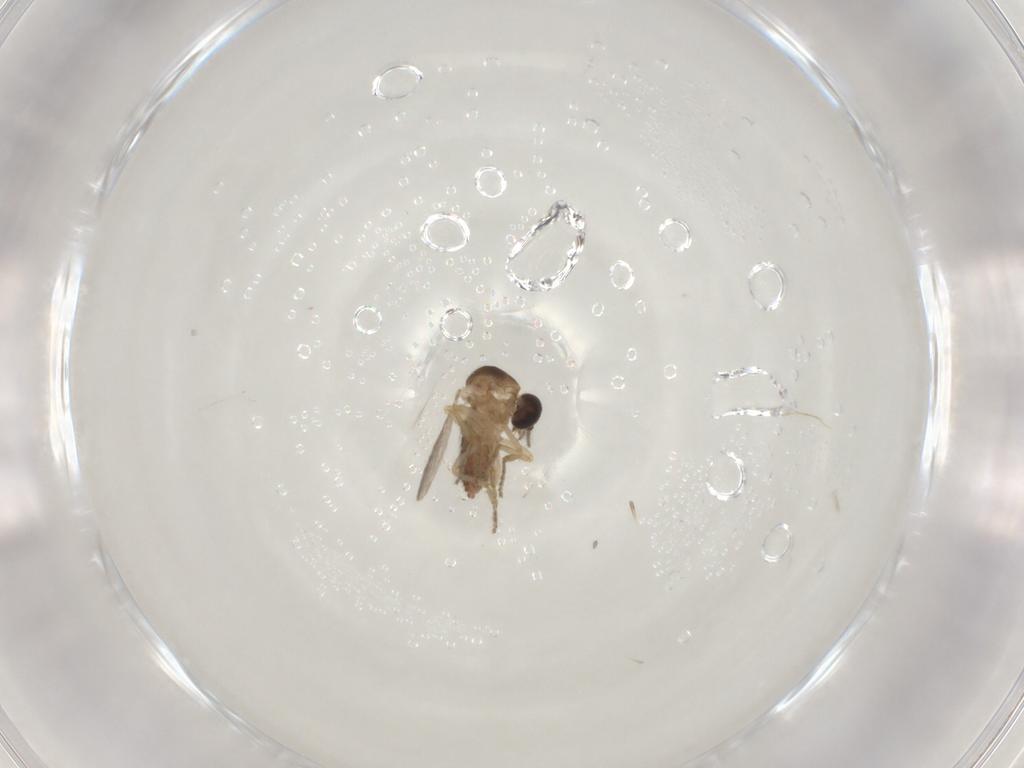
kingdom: Animalia
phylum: Arthropoda
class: Insecta
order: Diptera
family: Ceratopogonidae
